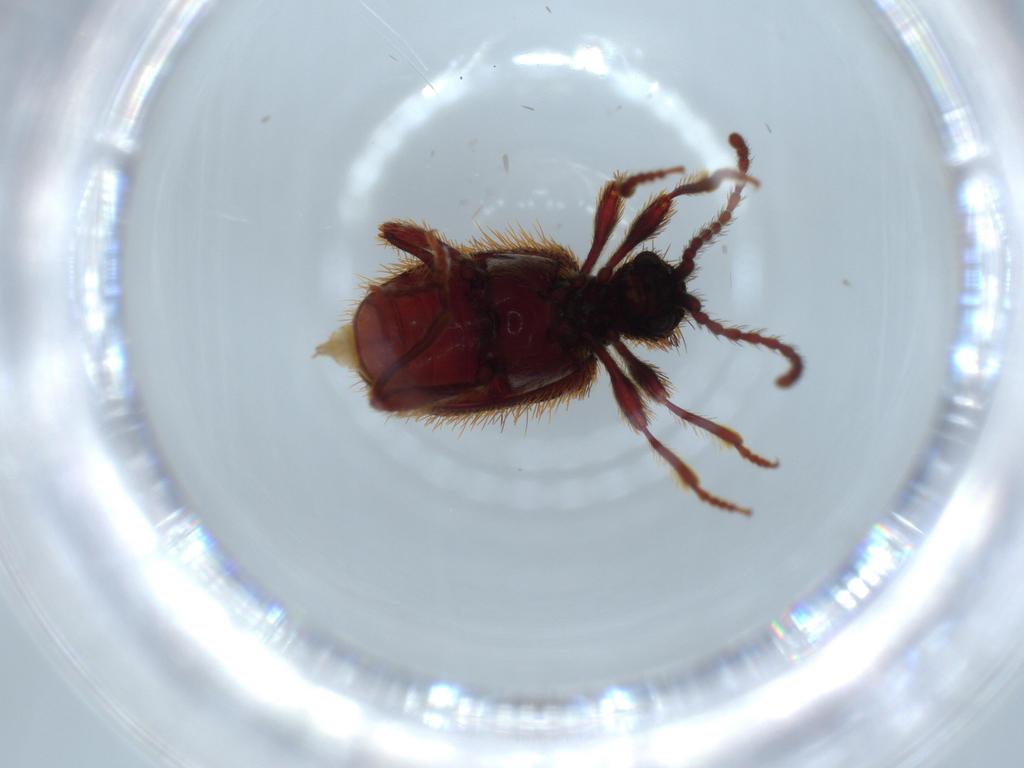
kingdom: Animalia
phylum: Arthropoda
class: Insecta
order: Coleoptera
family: Ptinidae
